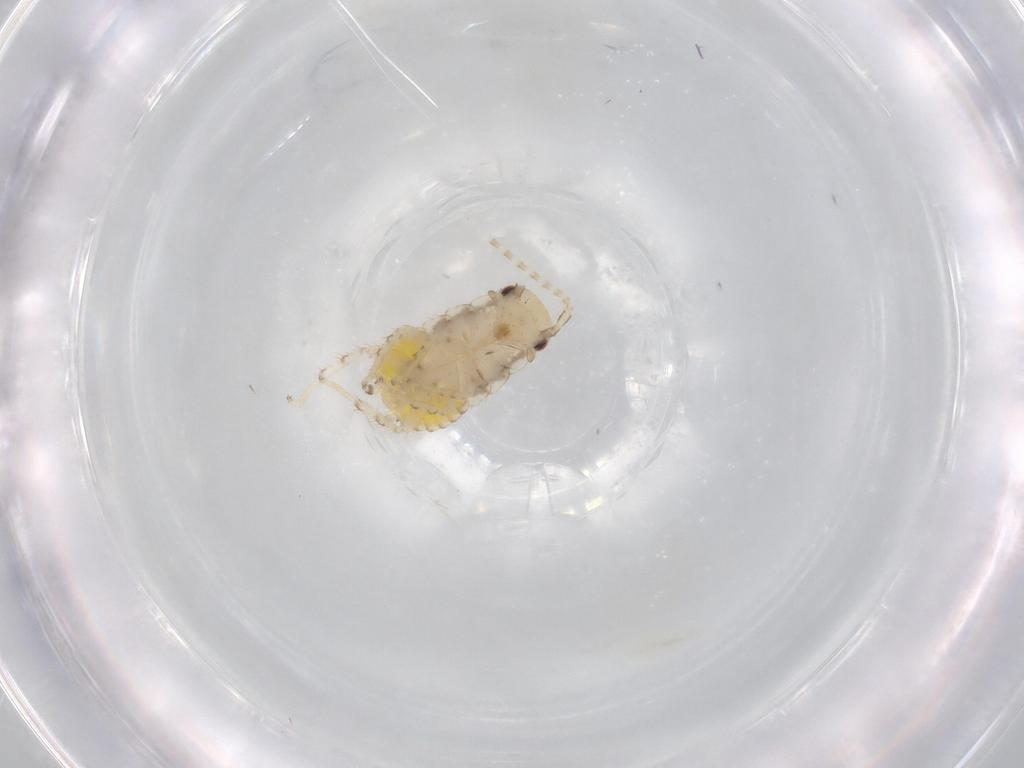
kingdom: Animalia
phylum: Arthropoda
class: Insecta
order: Blattodea
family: Ectobiidae
